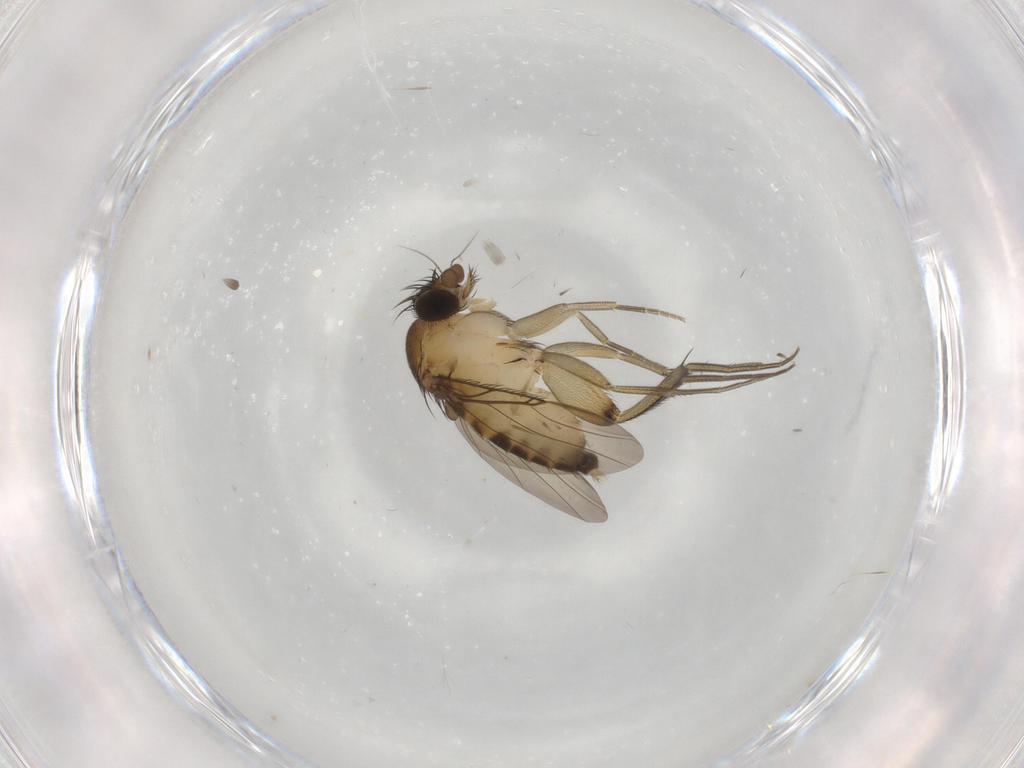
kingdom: Animalia
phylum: Arthropoda
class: Insecta
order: Diptera
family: Phoridae
